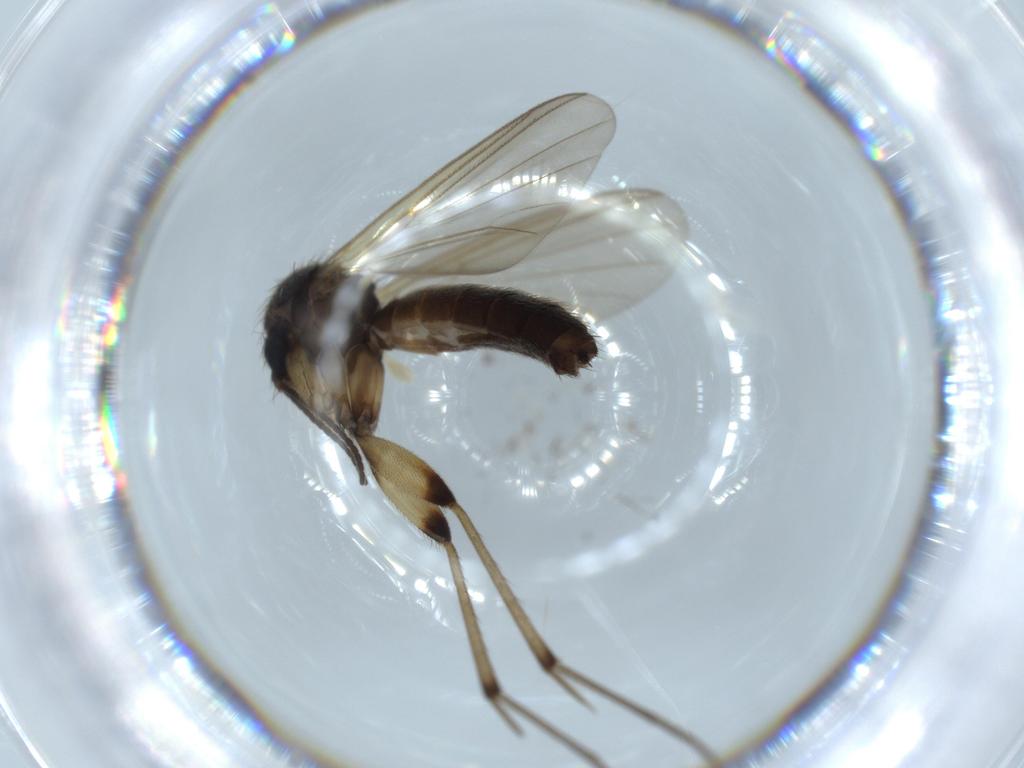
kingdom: Animalia
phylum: Arthropoda
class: Insecta
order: Diptera
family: Mycetophilidae
